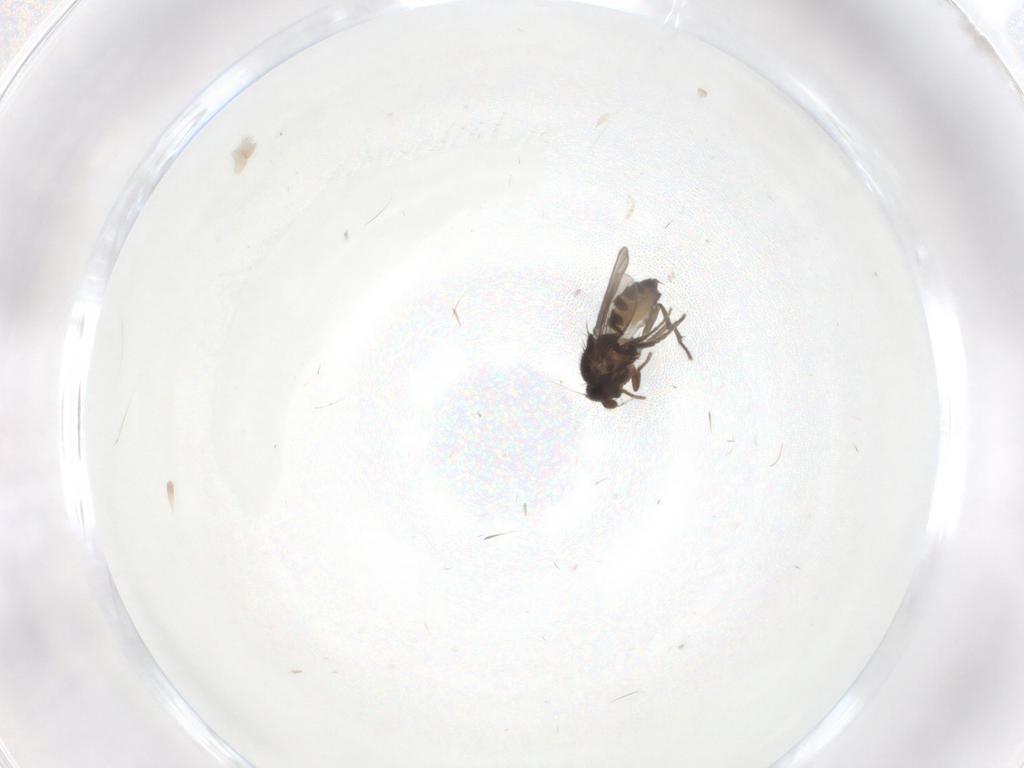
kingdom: Animalia
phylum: Arthropoda
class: Insecta
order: Diptera
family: Sphaeroceridae
